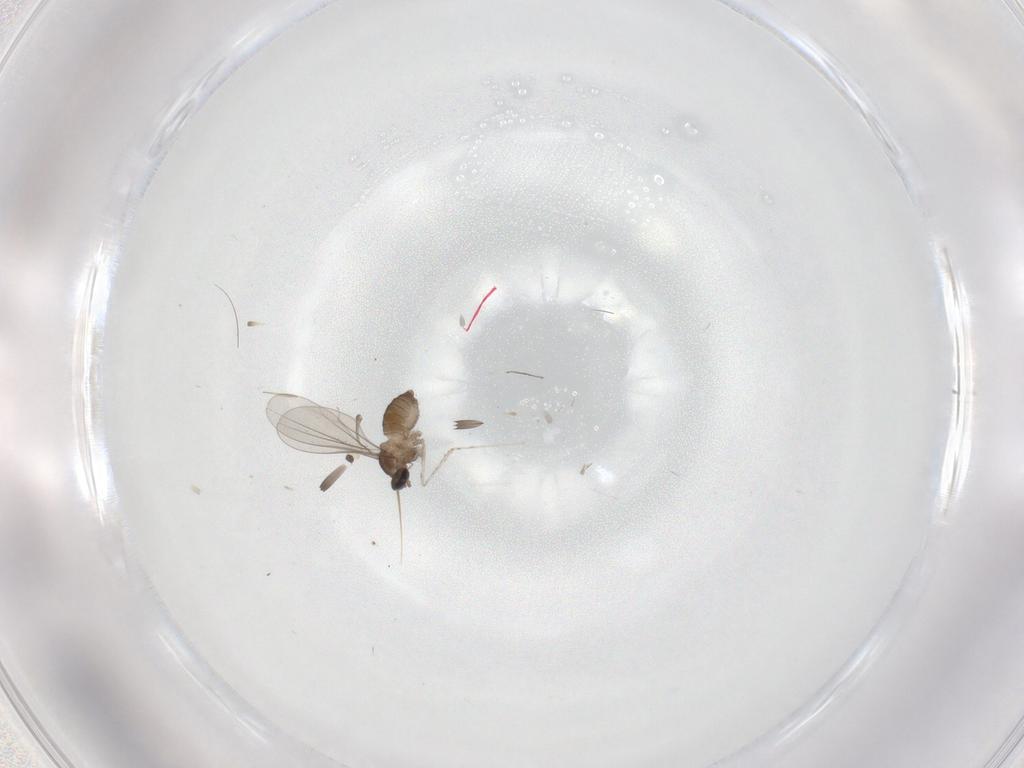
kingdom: Animalia
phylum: Arthropoda
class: Insecta
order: Diptera
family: Cecidomyiidae
